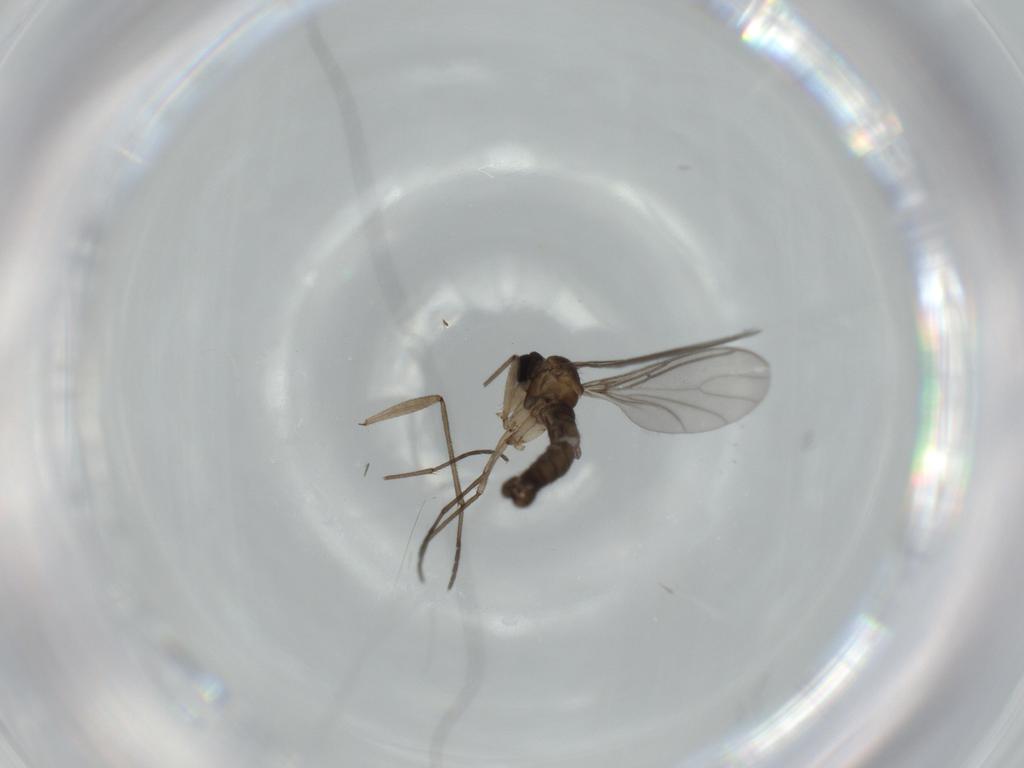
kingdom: Animalia
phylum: Arthropoda
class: Insecta
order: Diptera
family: Sciaridae
